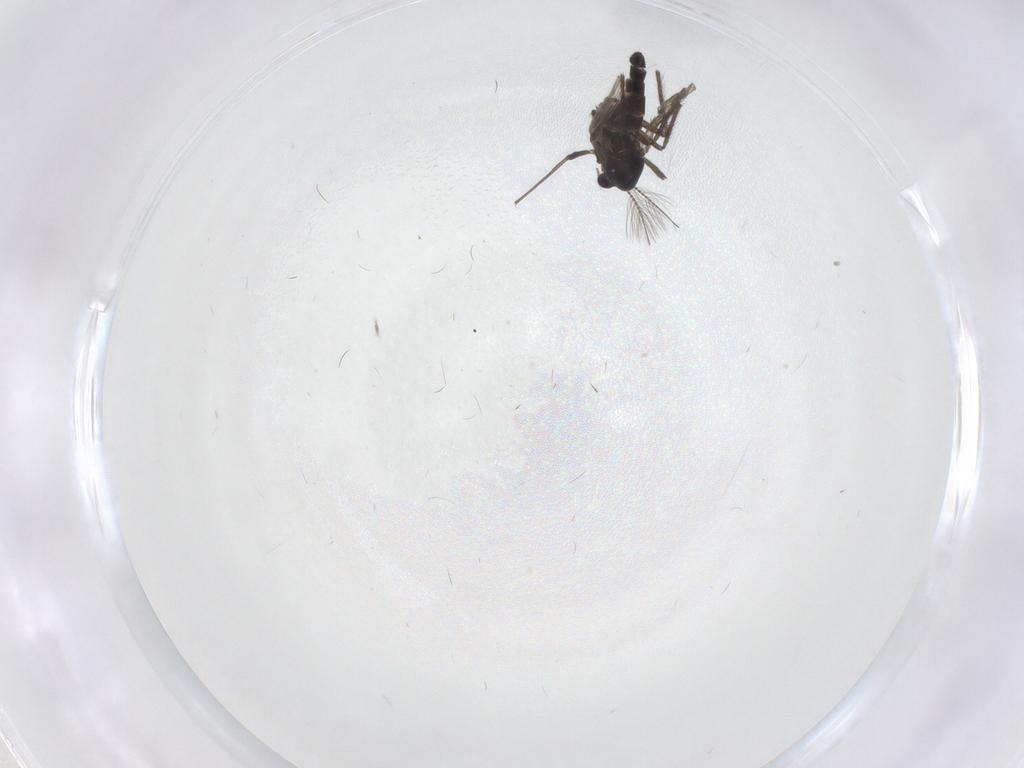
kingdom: Animalia
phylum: Arthropoda
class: Insecta
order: Diptera
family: Chironomidae
